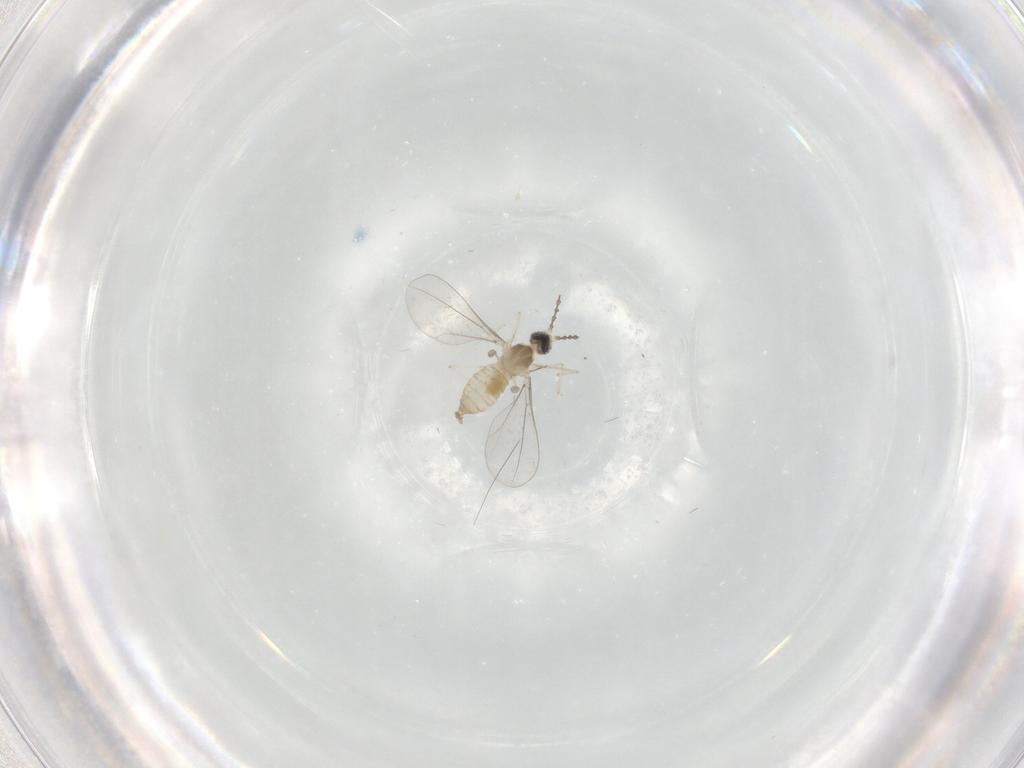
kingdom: Animalia
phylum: Arthropoda
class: Insecta
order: Diptera
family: Cecidomyiidae
